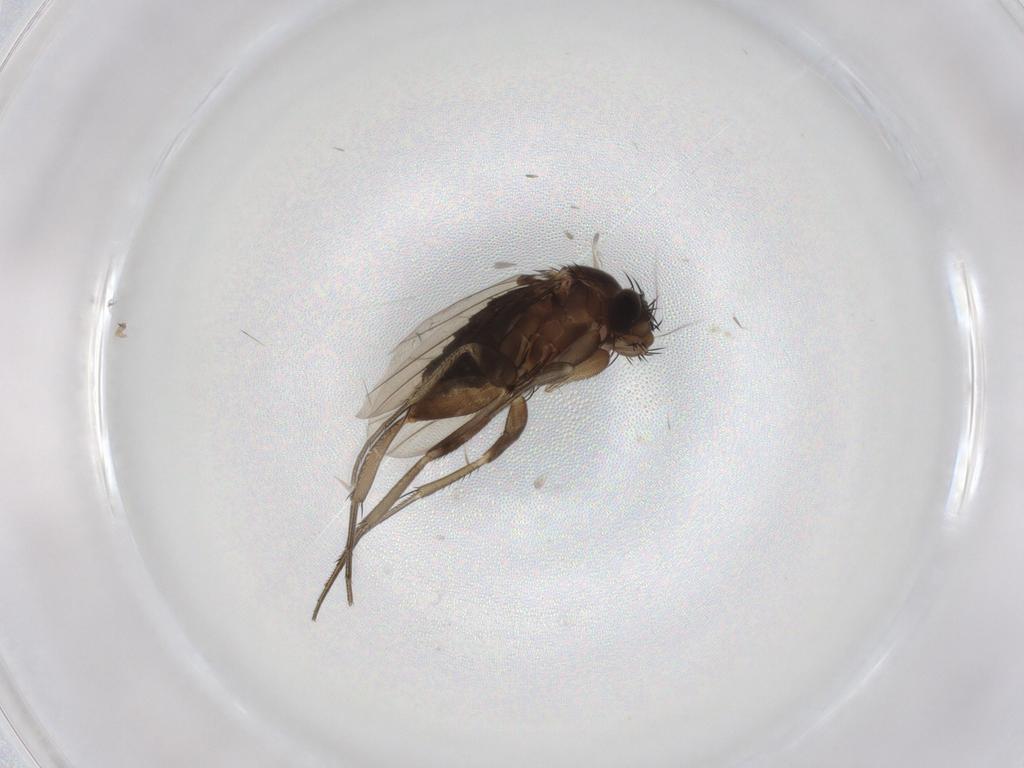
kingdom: Animalia
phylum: Arthropoda
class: Insecta
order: Diptera
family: Phoridae
